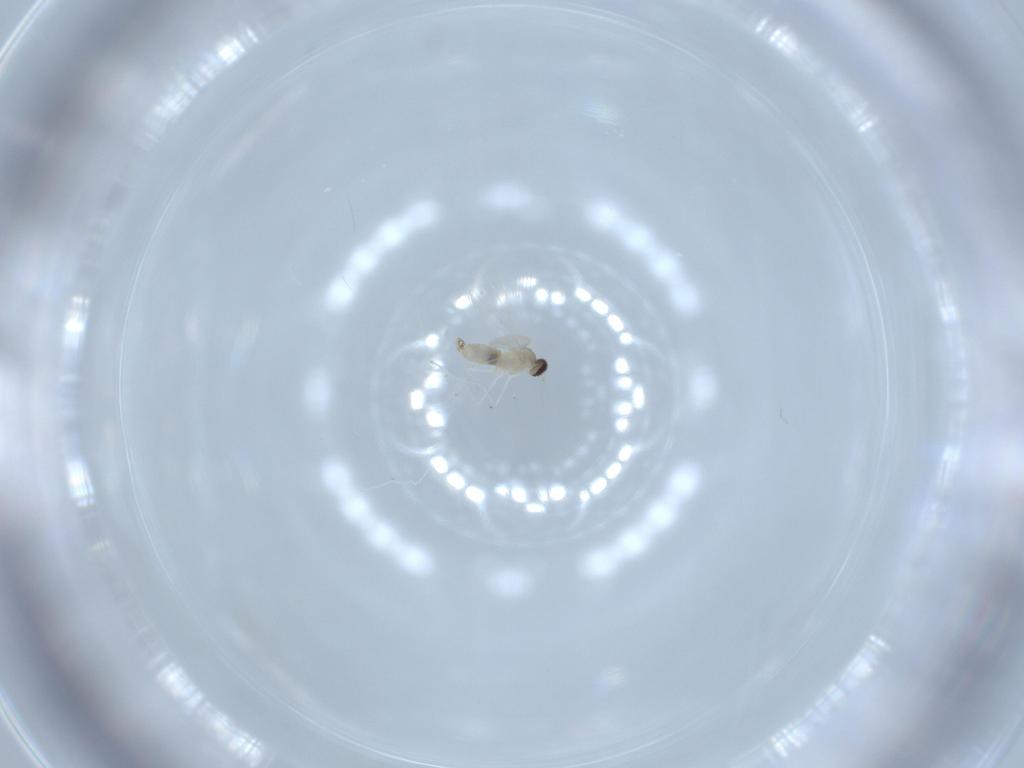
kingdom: Animalia
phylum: Arthropoda
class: Insecta
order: Diptera
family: Cecidomyiidae
